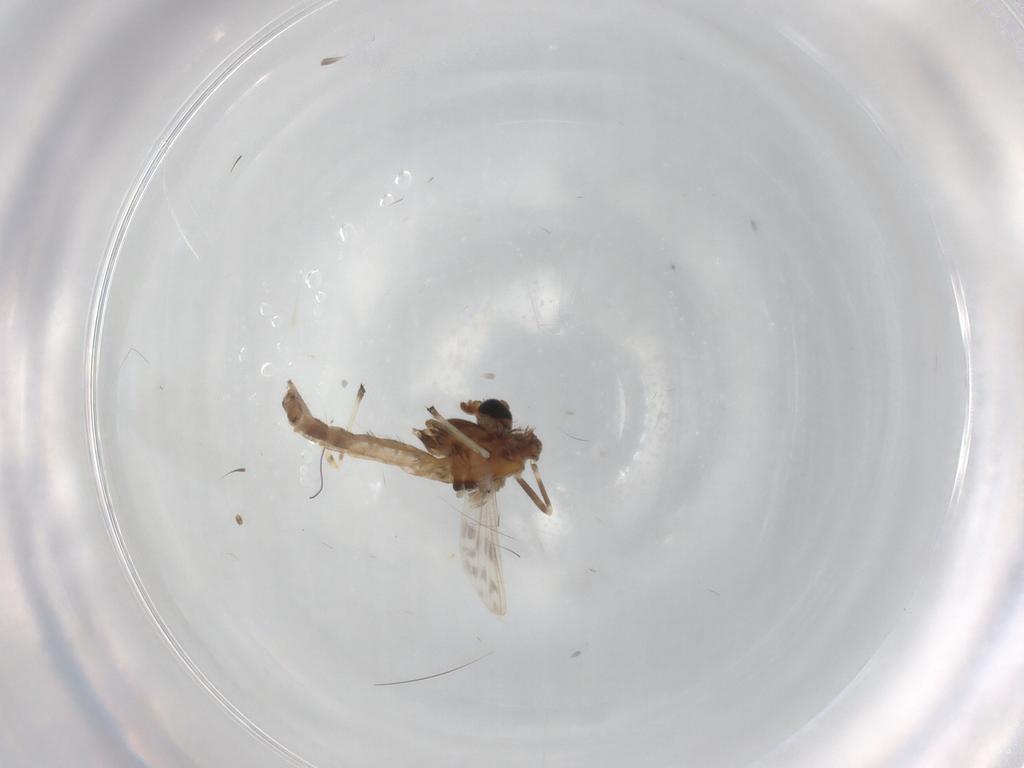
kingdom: Animalia
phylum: Arthropoda
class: Insecta
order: Diptera
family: Chironomidae
